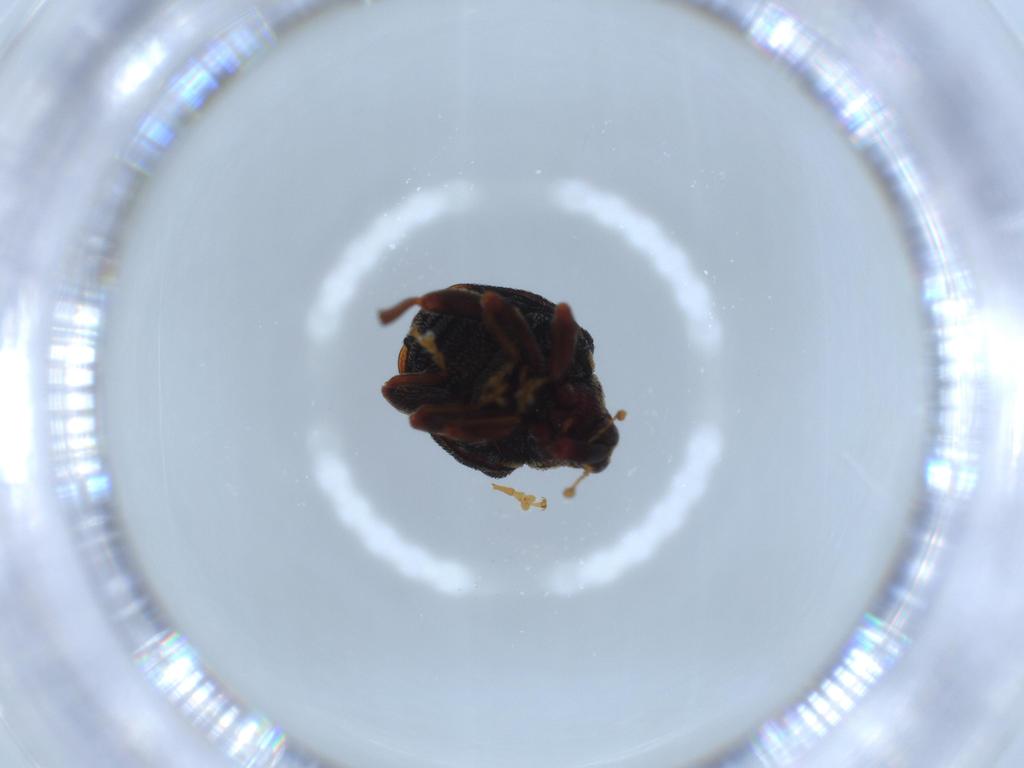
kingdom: Animalia
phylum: Arthropoda
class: Insecta
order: Coleoptera
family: Curculionidae
